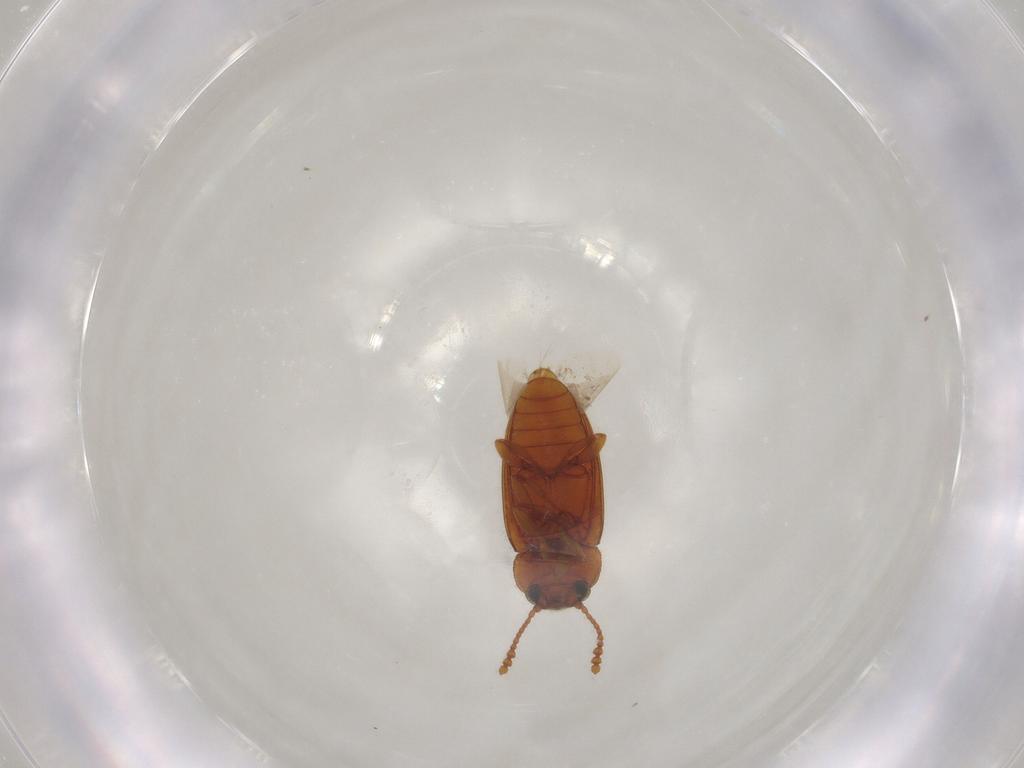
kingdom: Animalia
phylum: Arthropoda
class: Insecta
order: Coleoptera
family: Erotylidae
